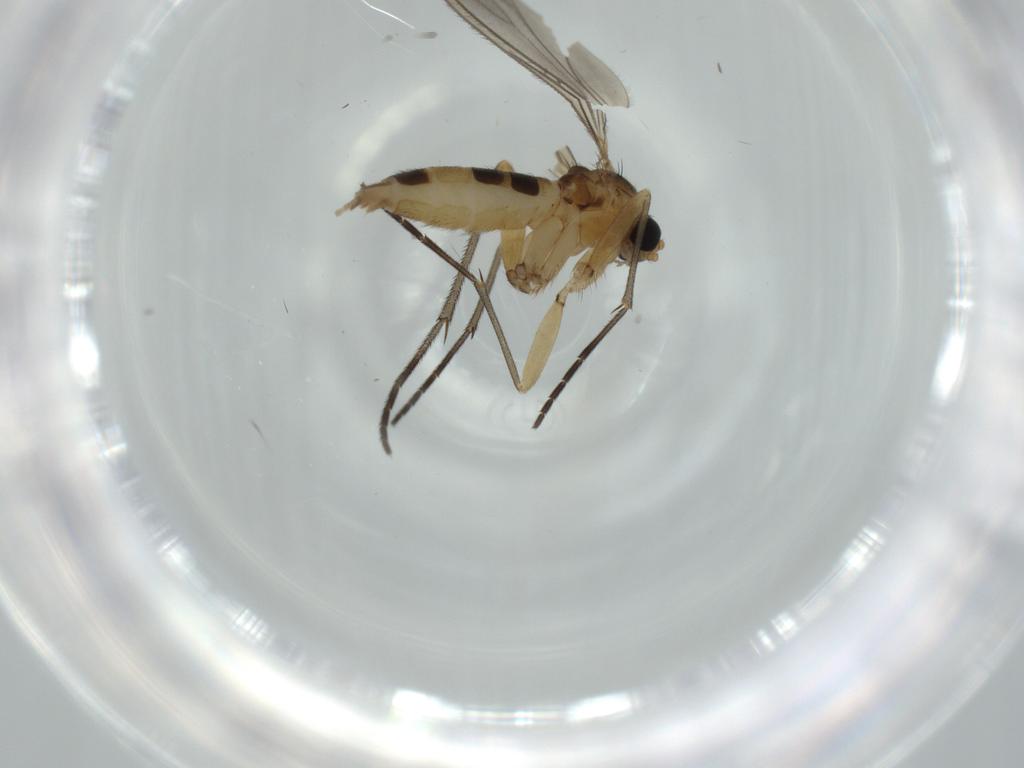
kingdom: Animalia
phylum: Arthropoda
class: Insecta
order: Diptera
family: Sciaridae
